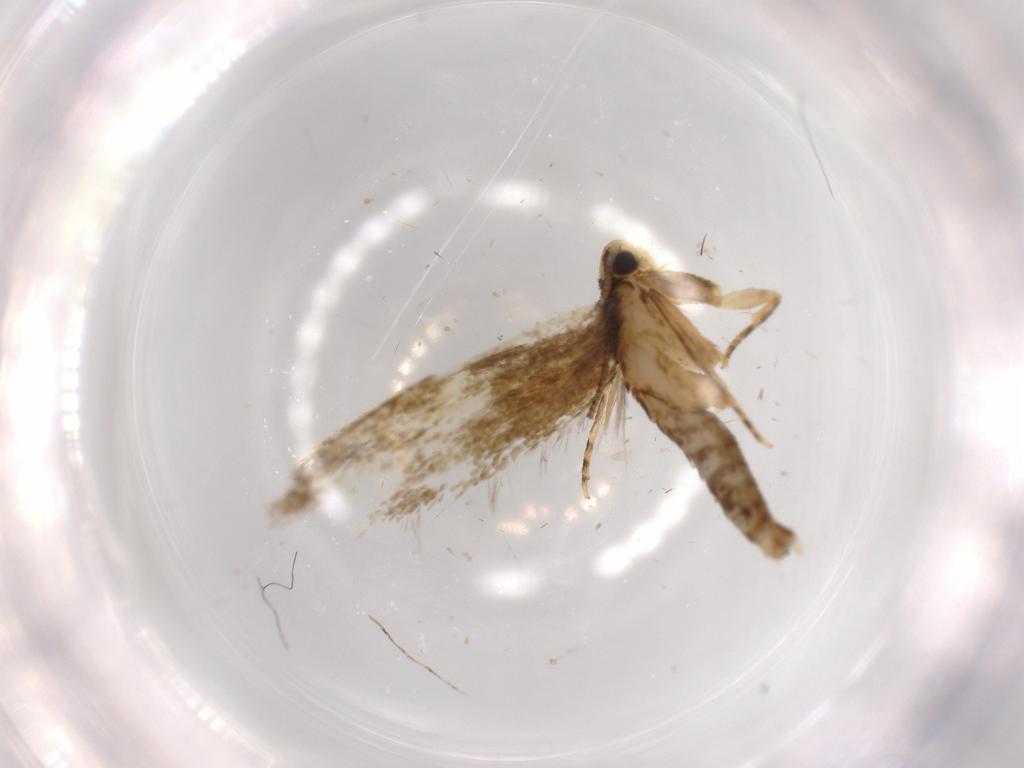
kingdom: Animalia
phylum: Arthropoda
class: Insecta
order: Lepidoptera
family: Tineidae
